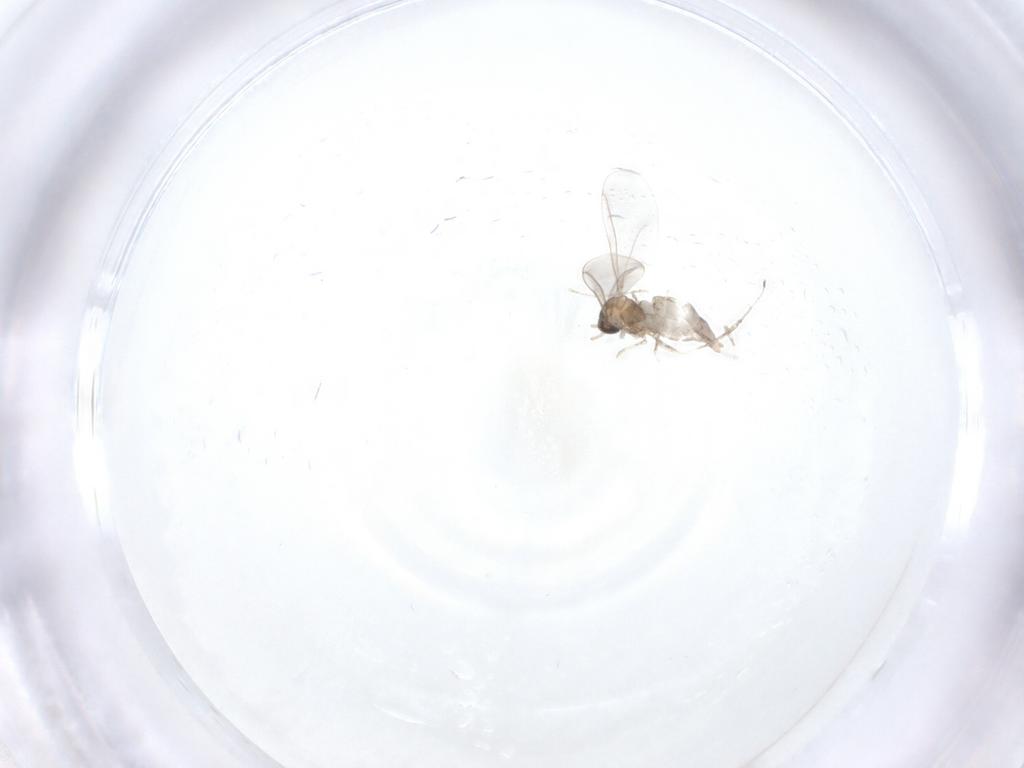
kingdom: Animalia
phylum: Arthropoda
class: Insecta
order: Diptera
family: Cecidomyiidae
